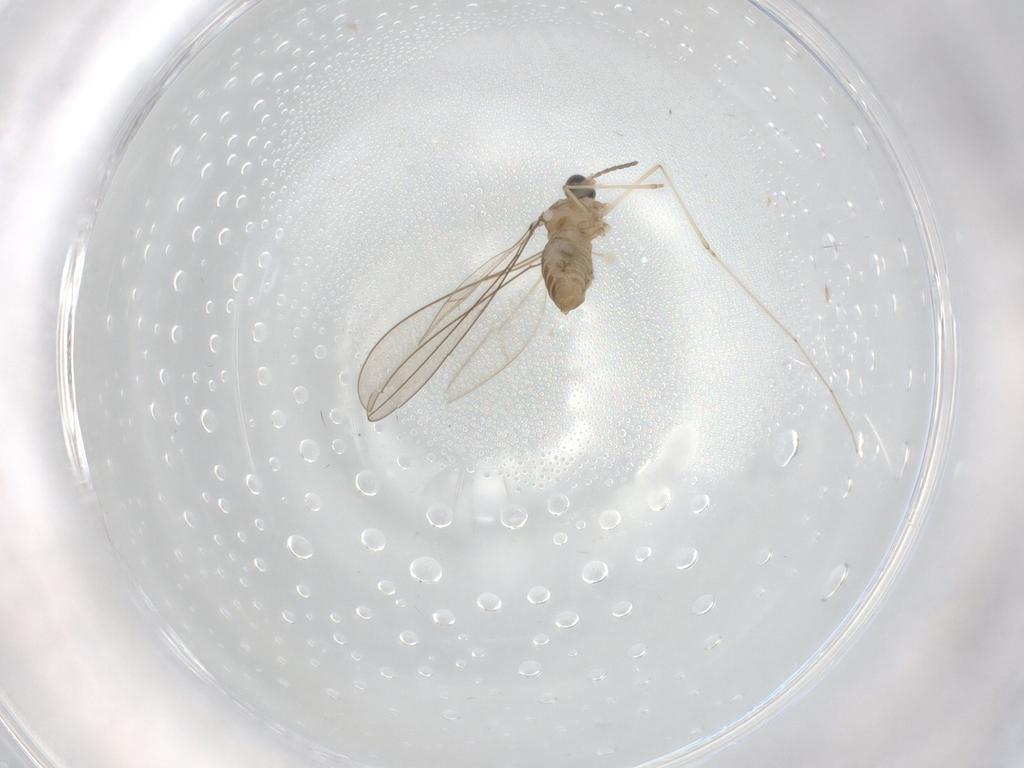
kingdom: Animalia
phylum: Arthropoda
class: Insecta
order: Diptera
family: Cecidomyiidae
